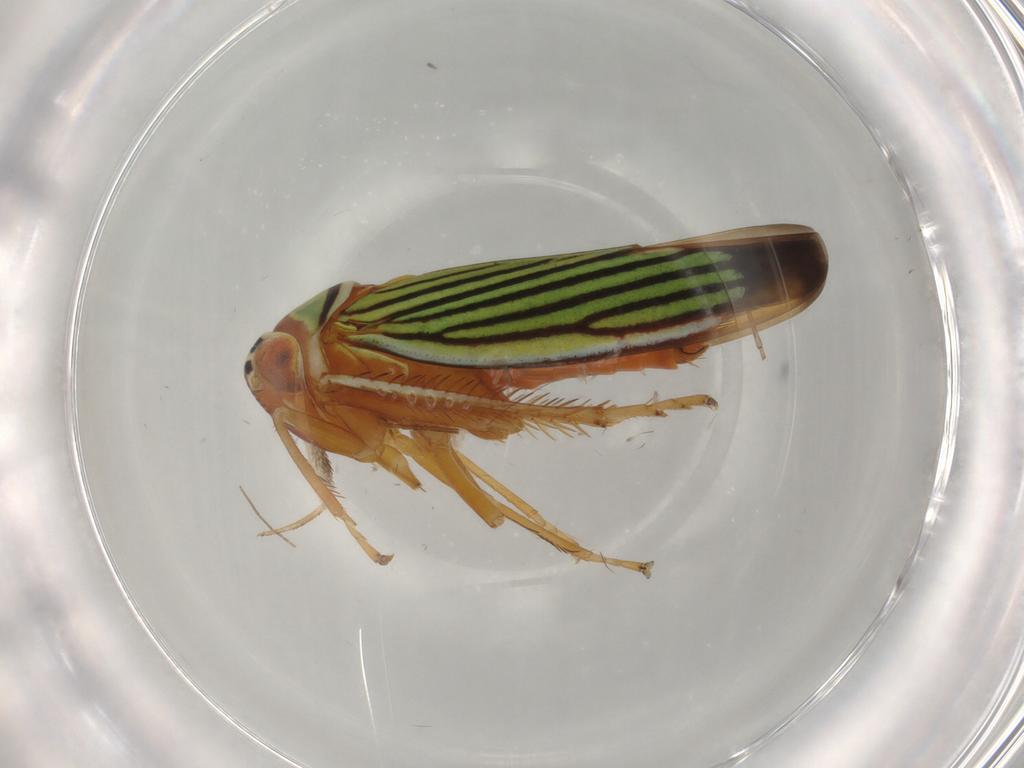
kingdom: Animalia
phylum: Arthropoda
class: Insecta
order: Hemiptera
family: Cicadellidae
